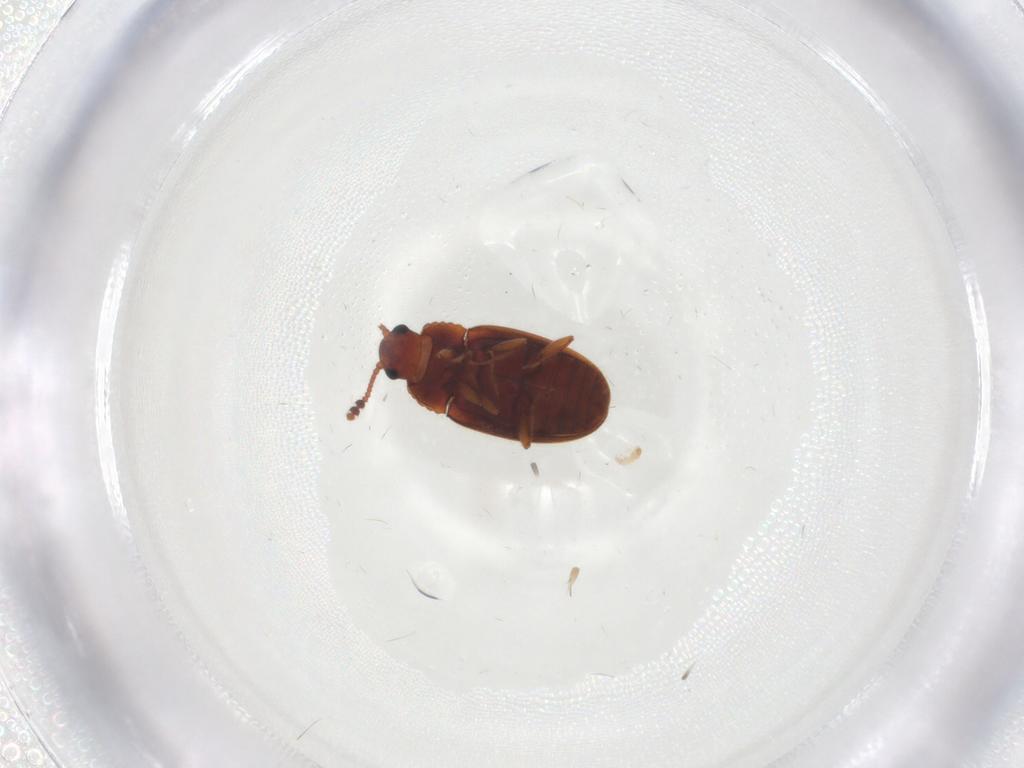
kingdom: Animalia
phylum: Arthropoda
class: Insecta
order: Coleoptera
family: Erotylidae
